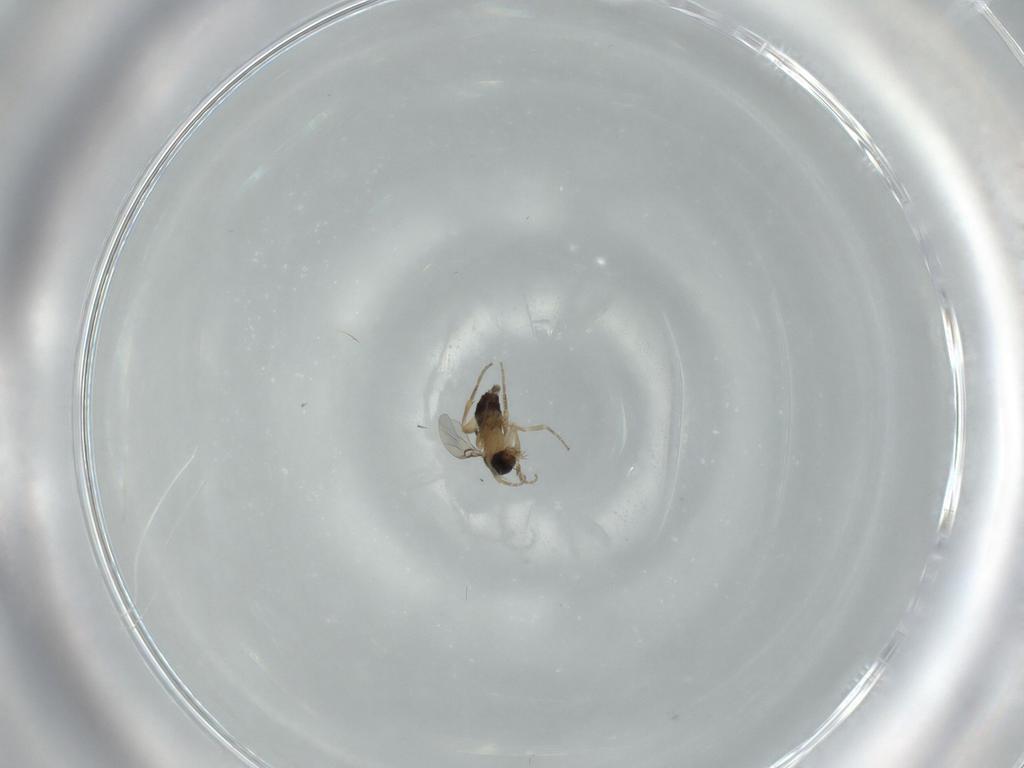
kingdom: Animalia
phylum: Arthropoda
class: Insecta
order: Diptera
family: Phoridae
